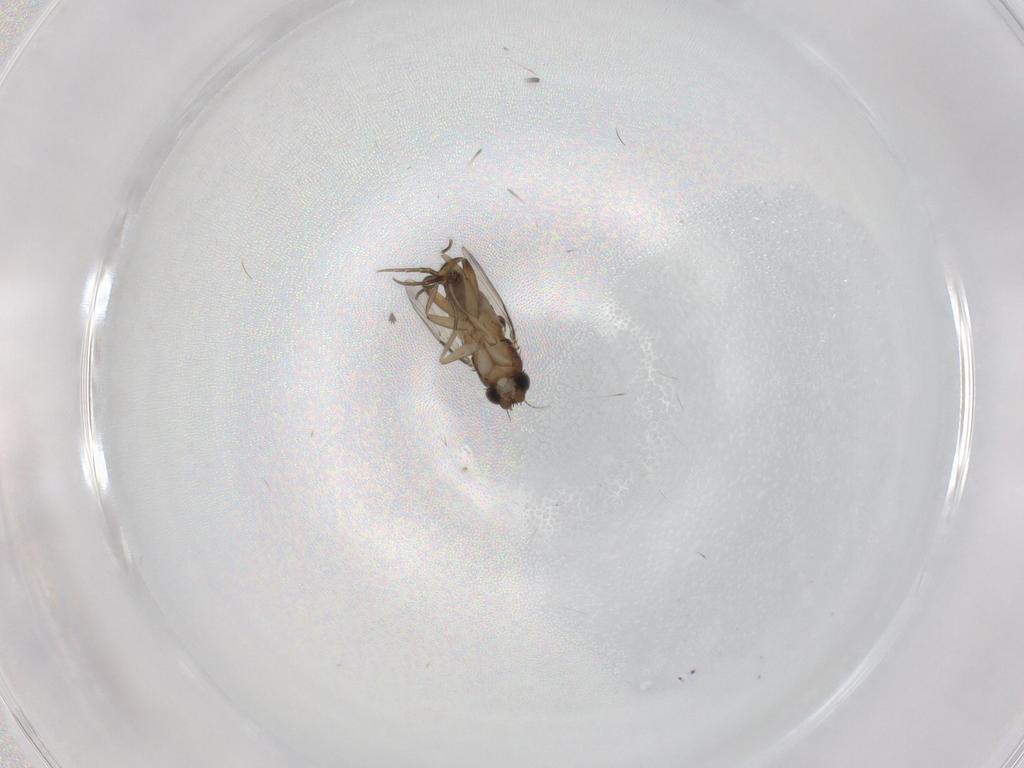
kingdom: Animalia
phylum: Arthropoda
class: Insecta
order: Diptera
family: Phoridae
